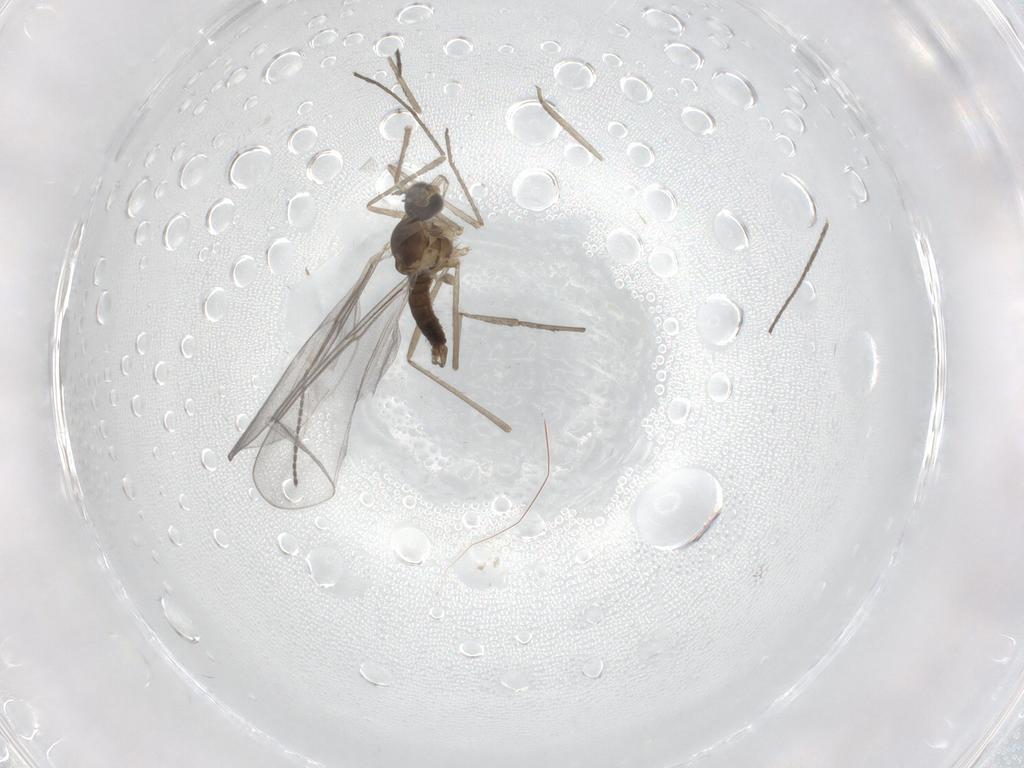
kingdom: Animalia
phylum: Arthropoda
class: Insecta
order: Diptera
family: Cecidomyiidae
